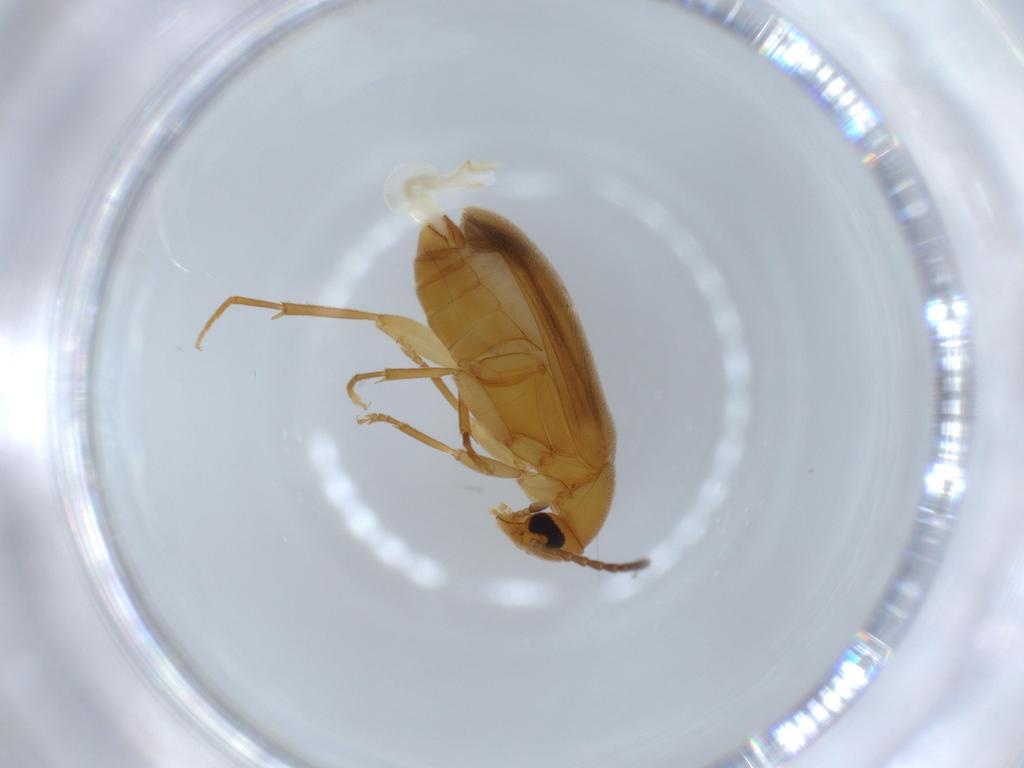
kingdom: Animalia
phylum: Arthropoda
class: Insecta
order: Coleoptera
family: Scraptiidae
